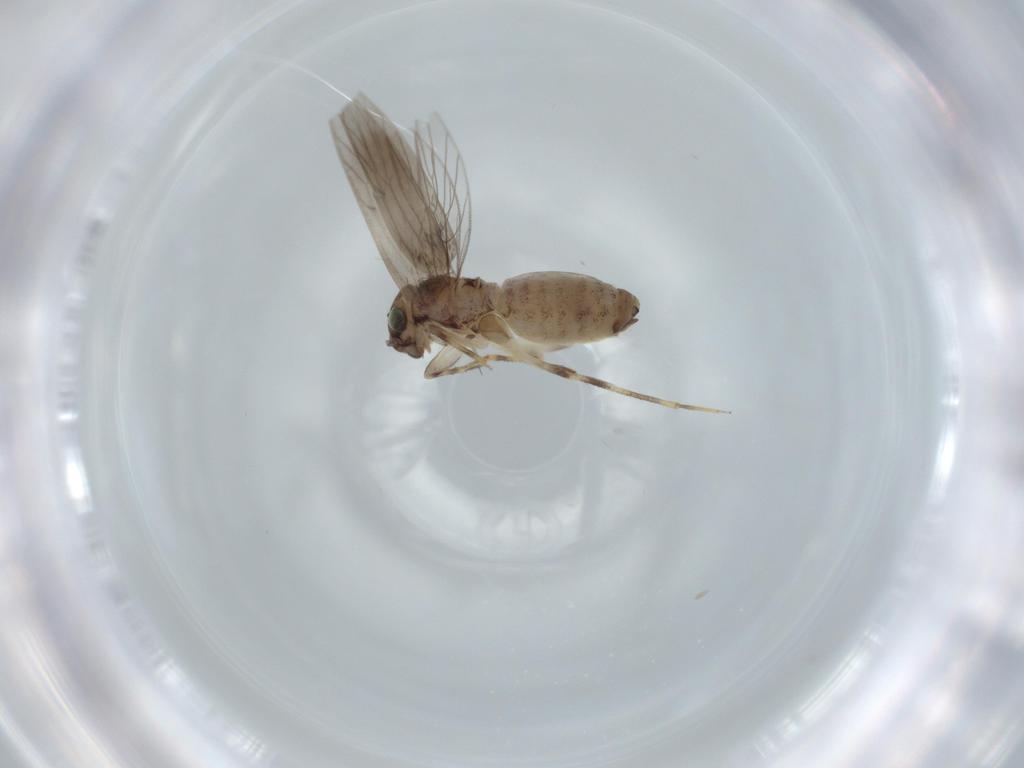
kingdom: Animalia
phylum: Arthropoda
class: Insecta
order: Psocodea
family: Lepidopsocidae
